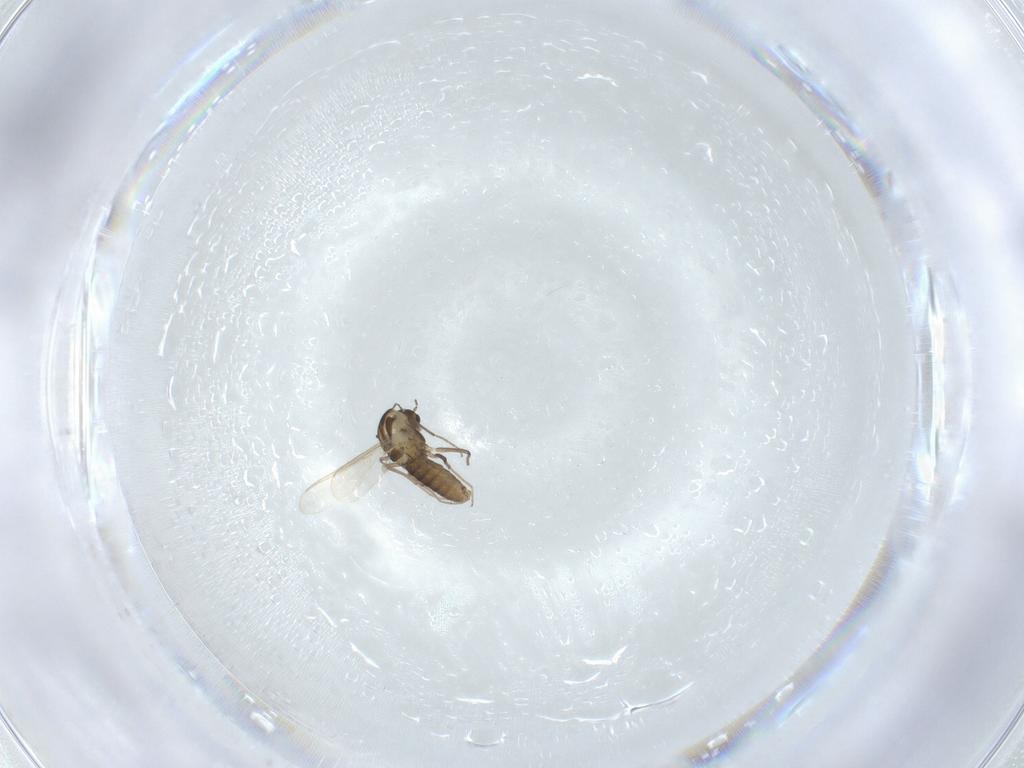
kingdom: Animalia
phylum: Arthropoda
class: Insecta
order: Diptera
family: Chironomidae
